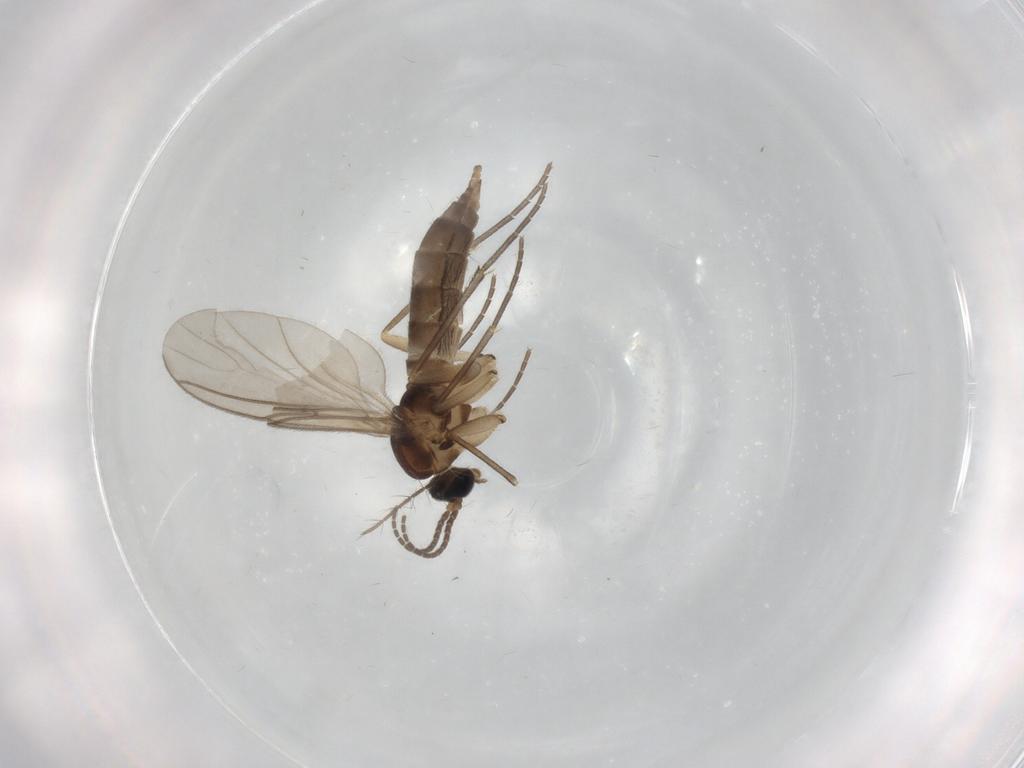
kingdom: Animalia
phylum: Arthropoda
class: Insecta
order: Diptera
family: Culicidae
